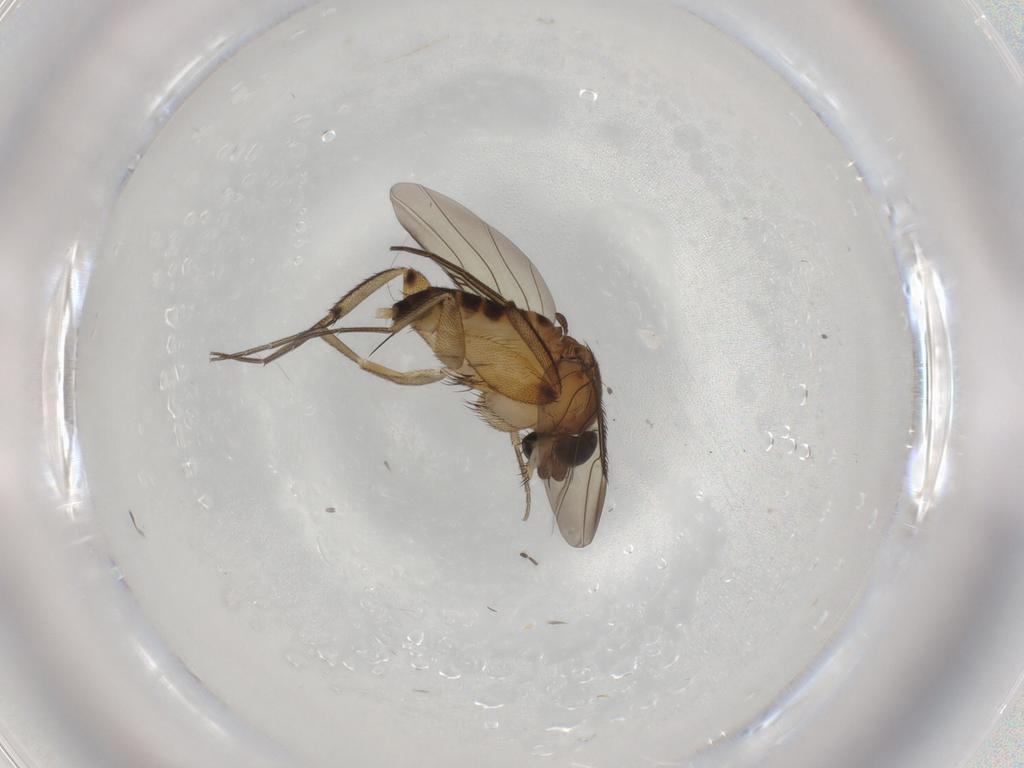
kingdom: Animalia
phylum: Arthropoda
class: Insecta
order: Diptera
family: Phoridae
